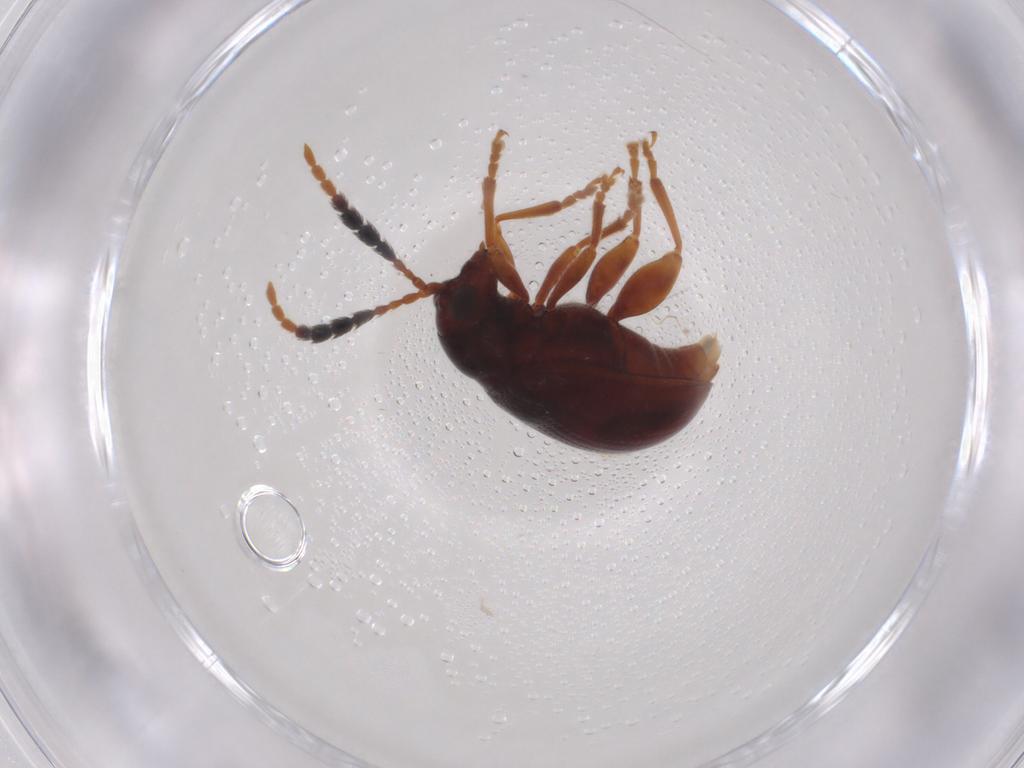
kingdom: Animalia
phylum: Arthropoda
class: Insecta
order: Coleoptera
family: Chrysomelidae
